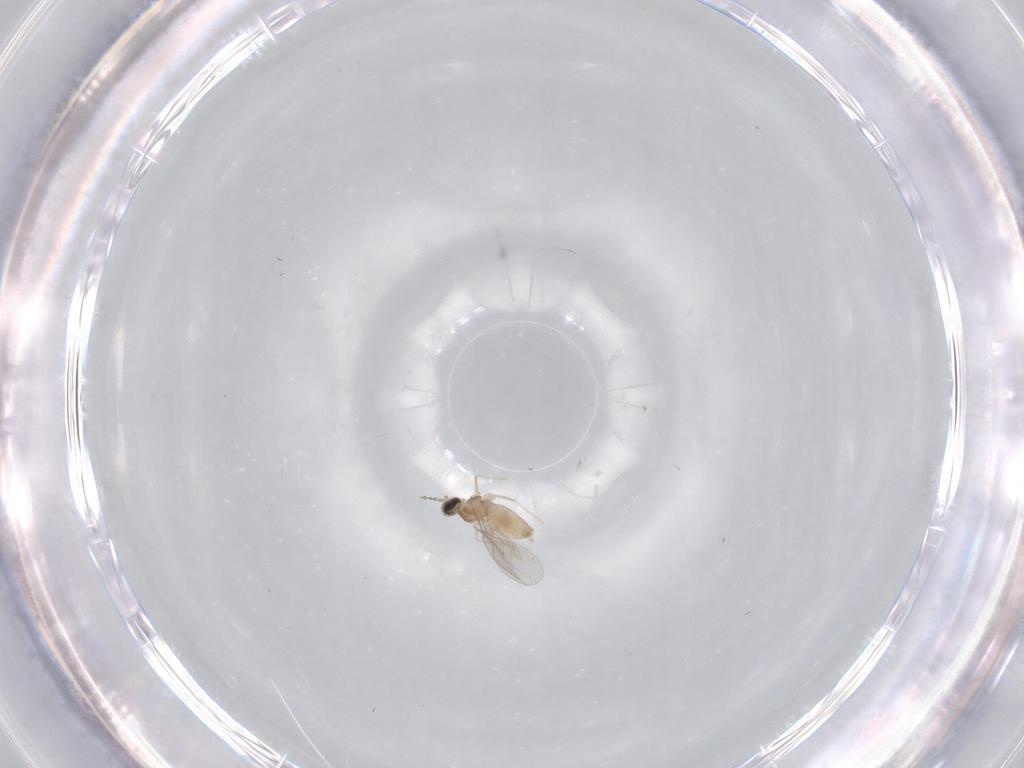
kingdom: Animalia
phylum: Arthropoda
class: Insecta
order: Diptera
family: Cecidomyiidae
